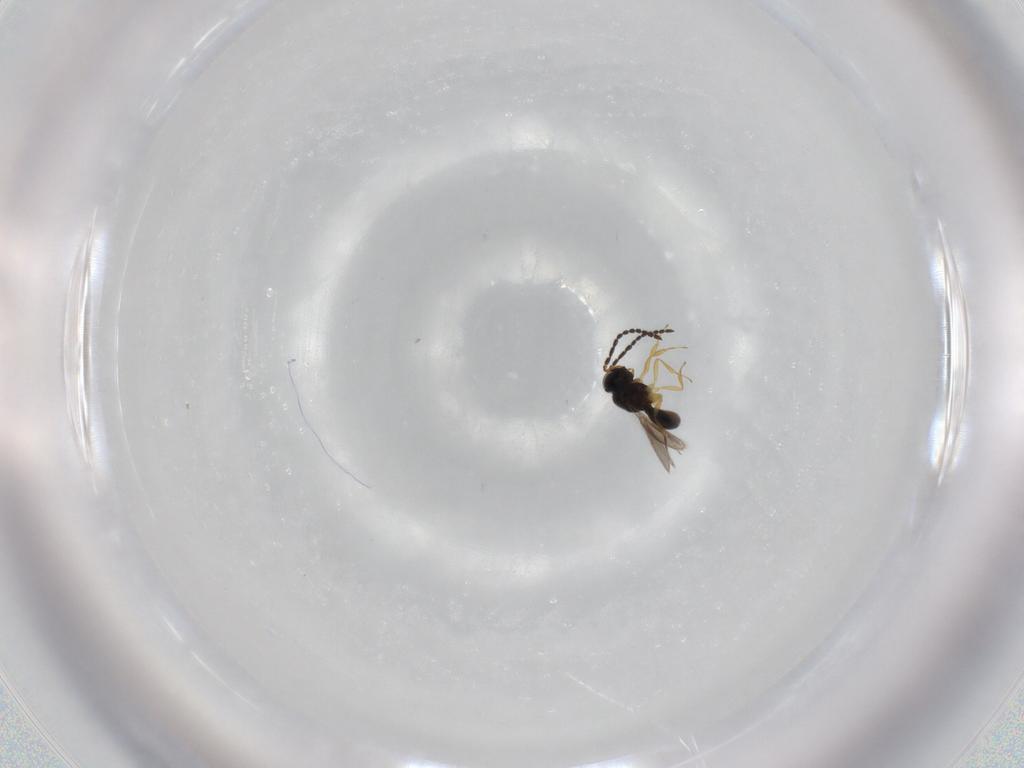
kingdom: Animalia
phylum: Arthropoda
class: Insecta
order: Hymenoptera
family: Scelionidae
